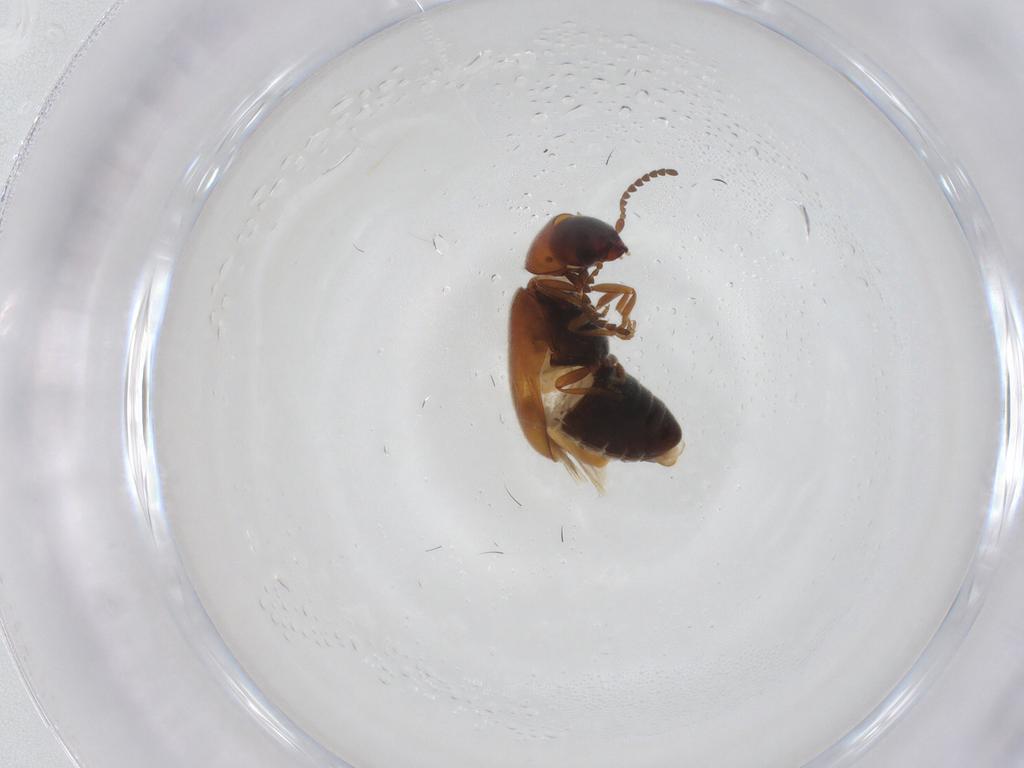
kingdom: Animalia
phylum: Arthropoda
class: Insecta
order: Coleoptera
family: Ptinidae
